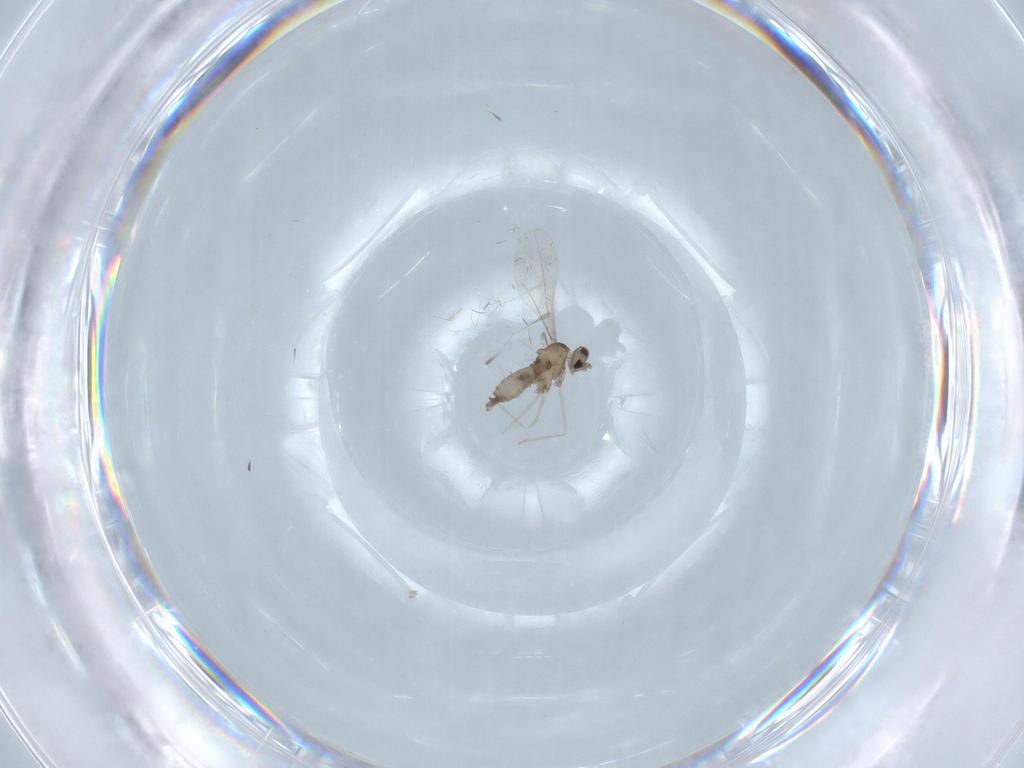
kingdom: Animalia
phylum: Arthropoda
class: Insecta
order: Diptera
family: Cecidomyiidae
